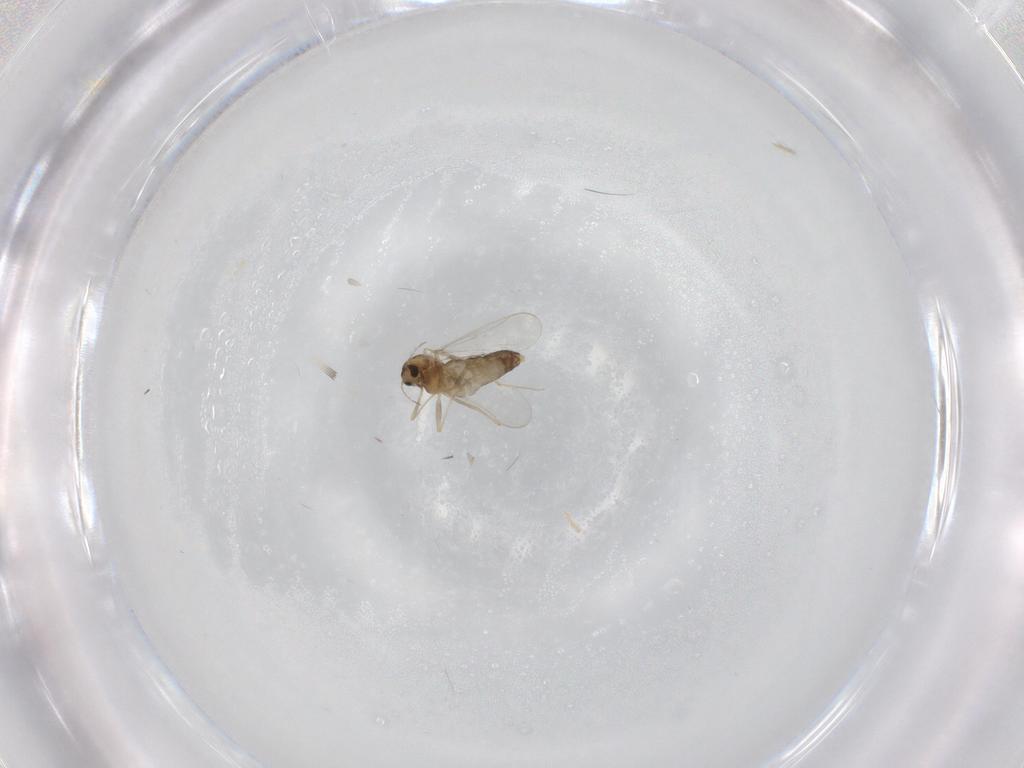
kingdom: Animalia
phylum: Arthropoda
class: Insecta
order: Diptera
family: Chironomidae
